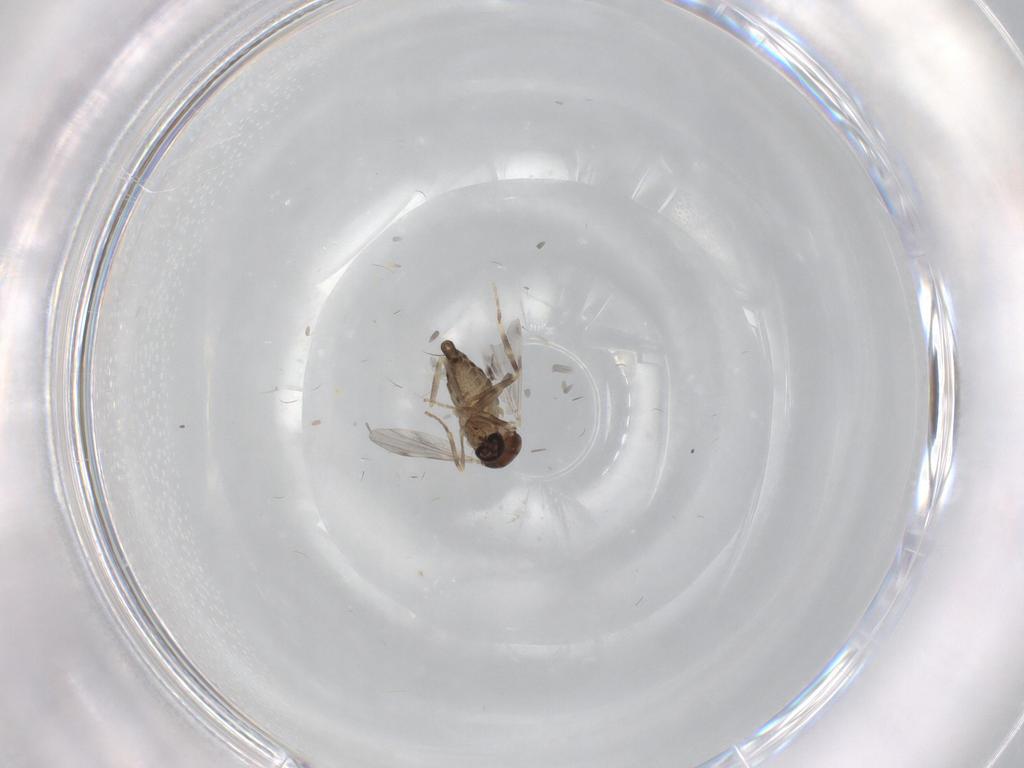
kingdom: Animalia
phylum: Arthropoda
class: Insecta
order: Diptera
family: Ceratopogonidae
